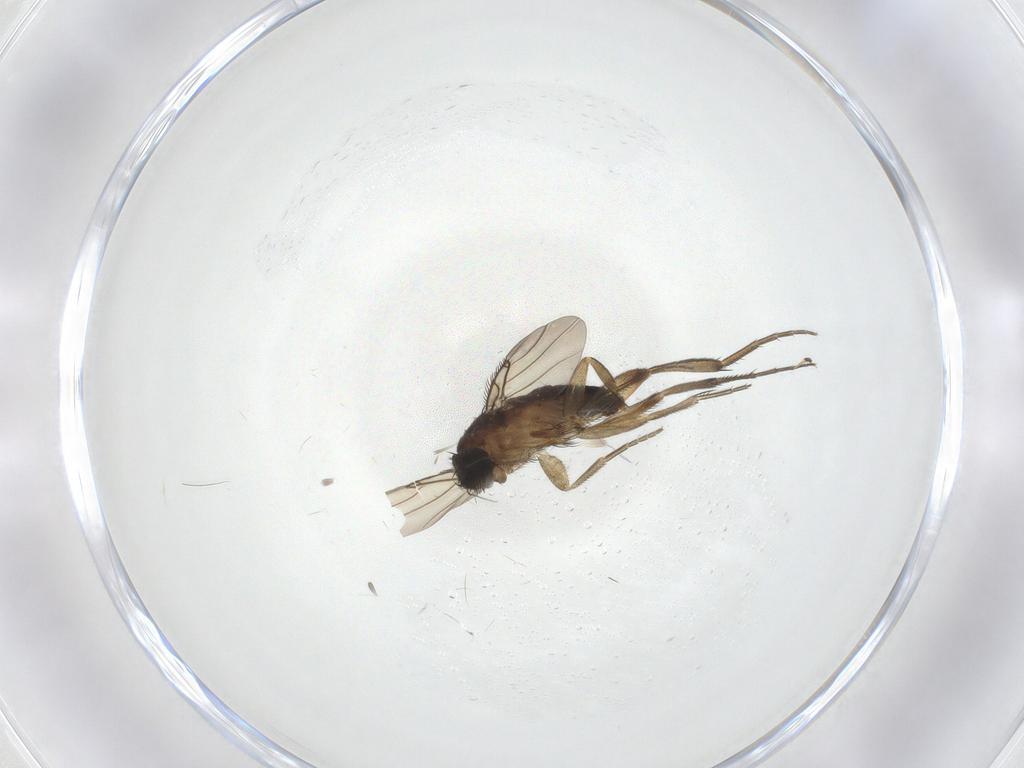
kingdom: Animalia
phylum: Arthropoda
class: Insecta
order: Diptera
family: Phoridae
